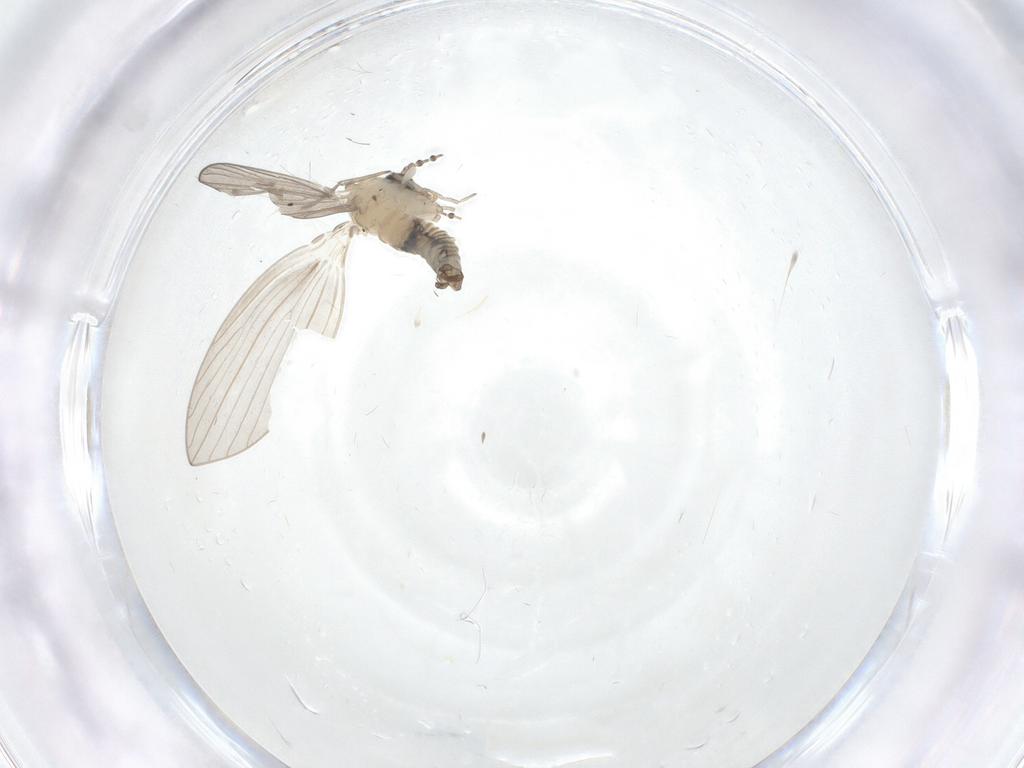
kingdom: Animalia
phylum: Arthropoda
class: Insecta
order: Diptera
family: Psychodidae
